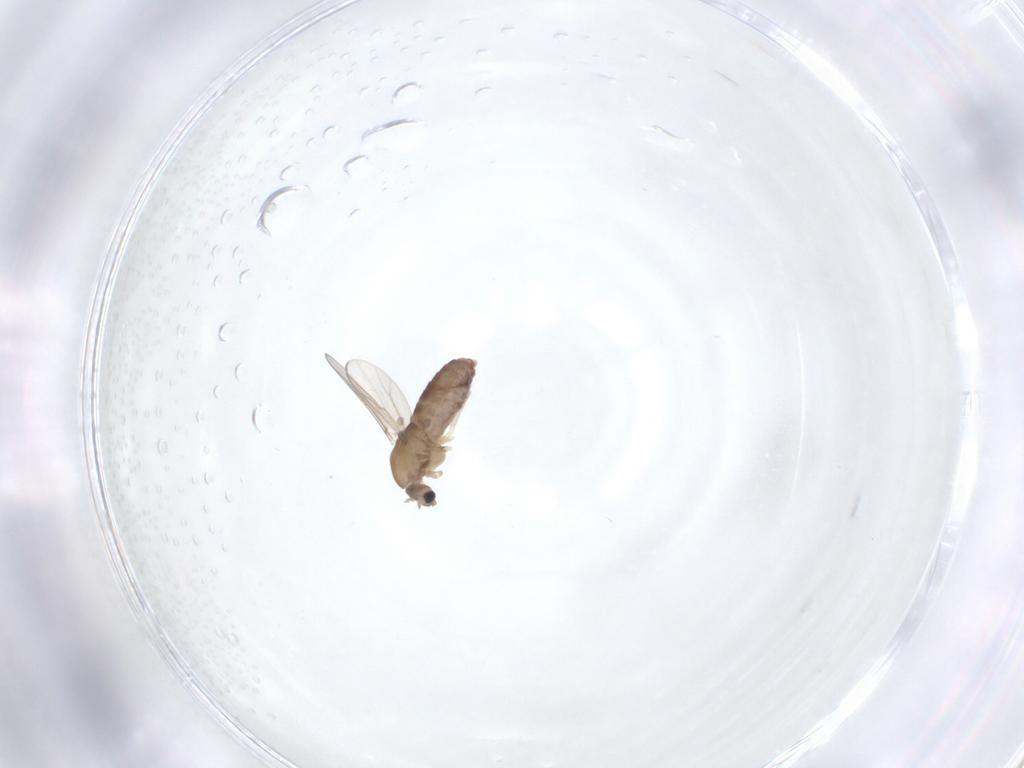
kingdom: Animalia
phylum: Arthropoda
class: Insecta
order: Diptera
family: Chironomidae
